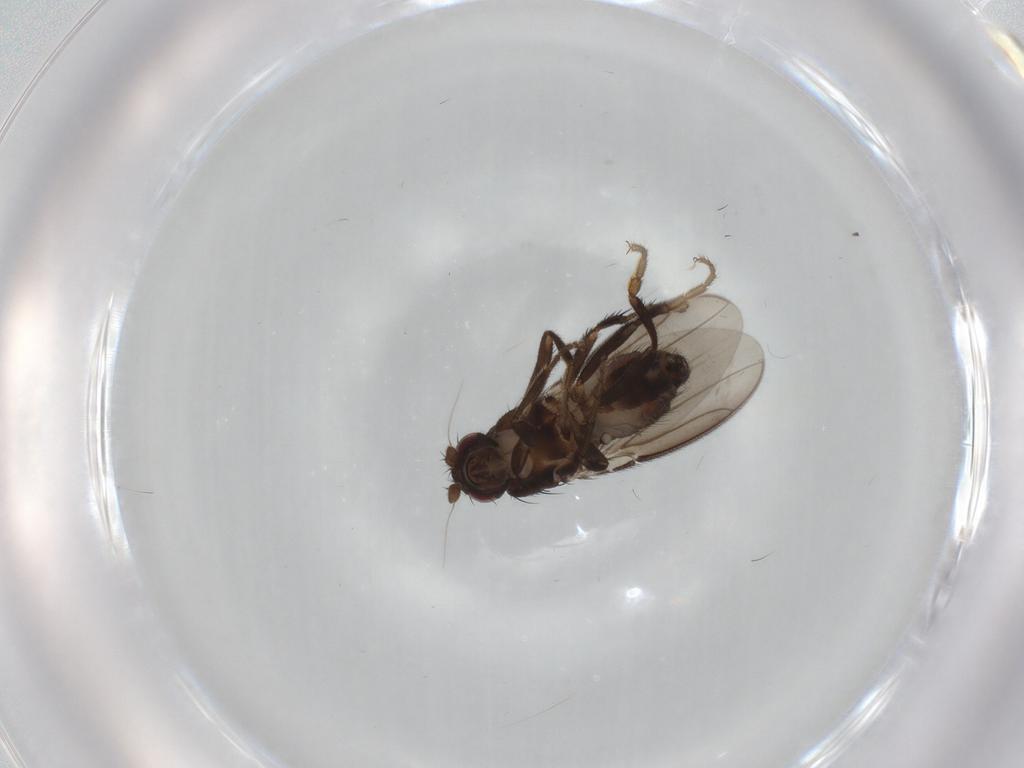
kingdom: Animalia
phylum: Arthropoda
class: Insecta
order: Diptera
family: Sphaeroceridae
